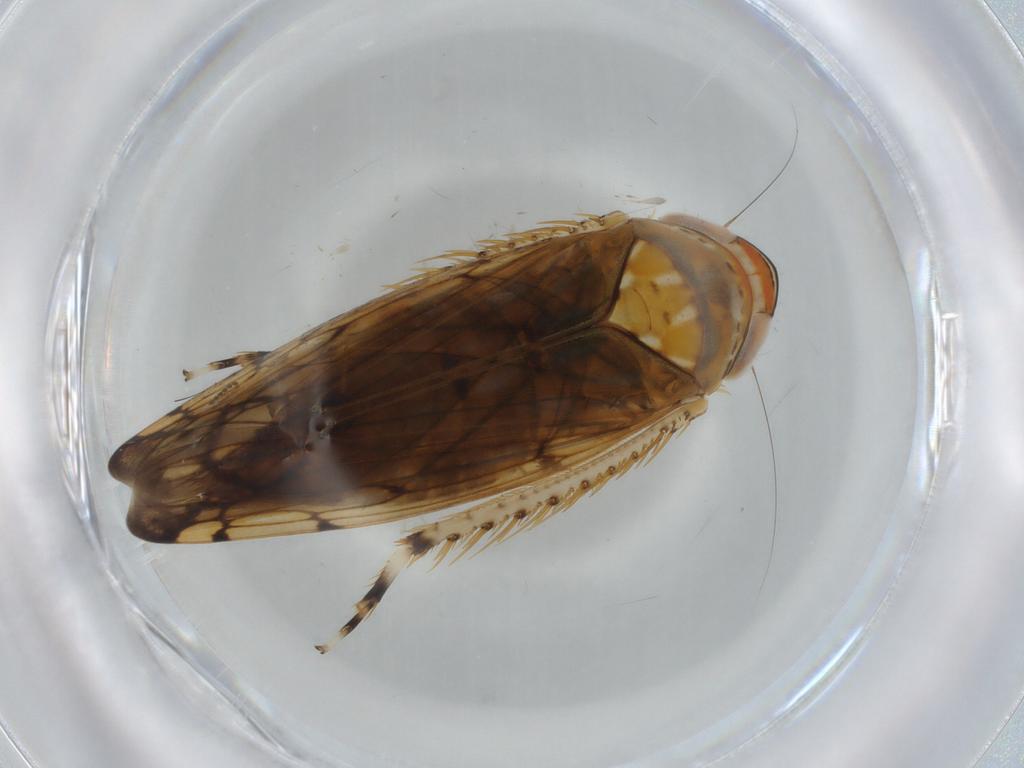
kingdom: Animalia
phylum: Arthropoda
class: Insecta
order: Hemiptera
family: Cicadellidae
